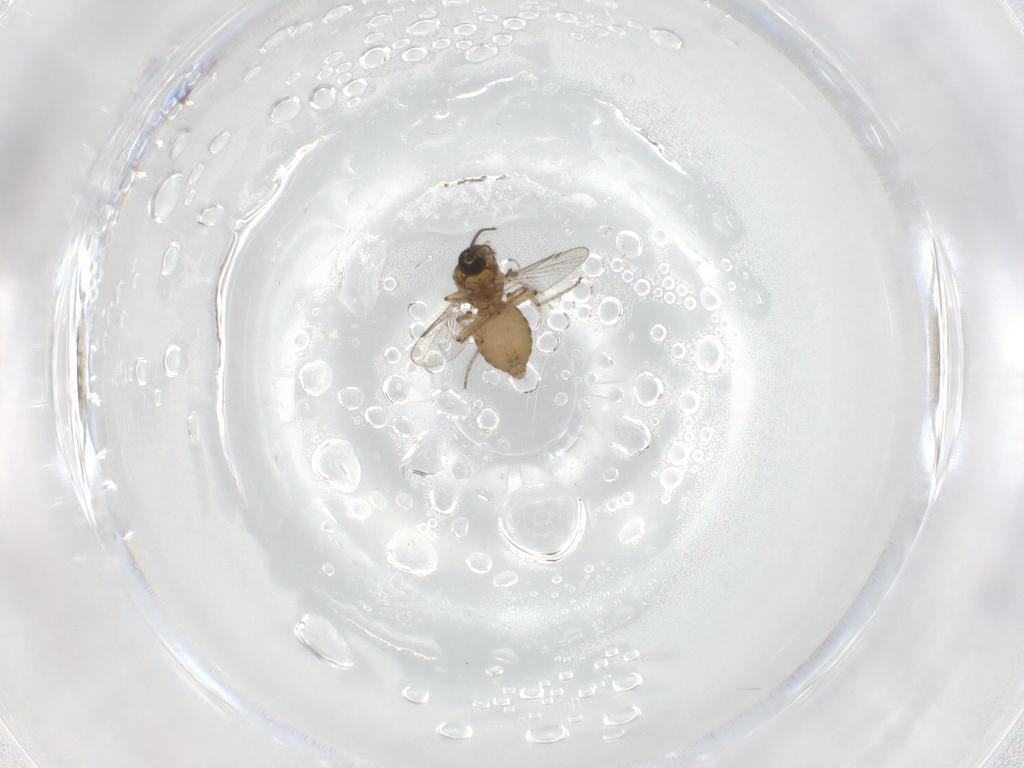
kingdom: Animalia
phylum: Arthropoda
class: Insecta
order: Diptera
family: Ceratopogonidae
